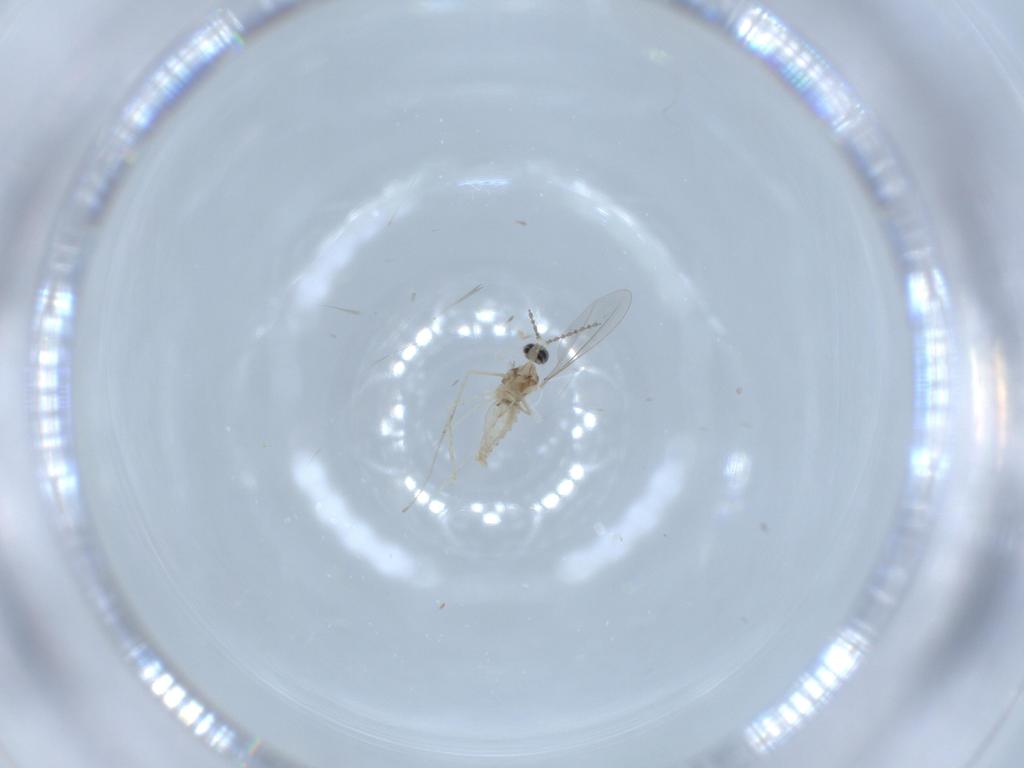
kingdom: Animalia
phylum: Arthropoda
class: Insecta
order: Diptera
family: Cecidomyiidae
